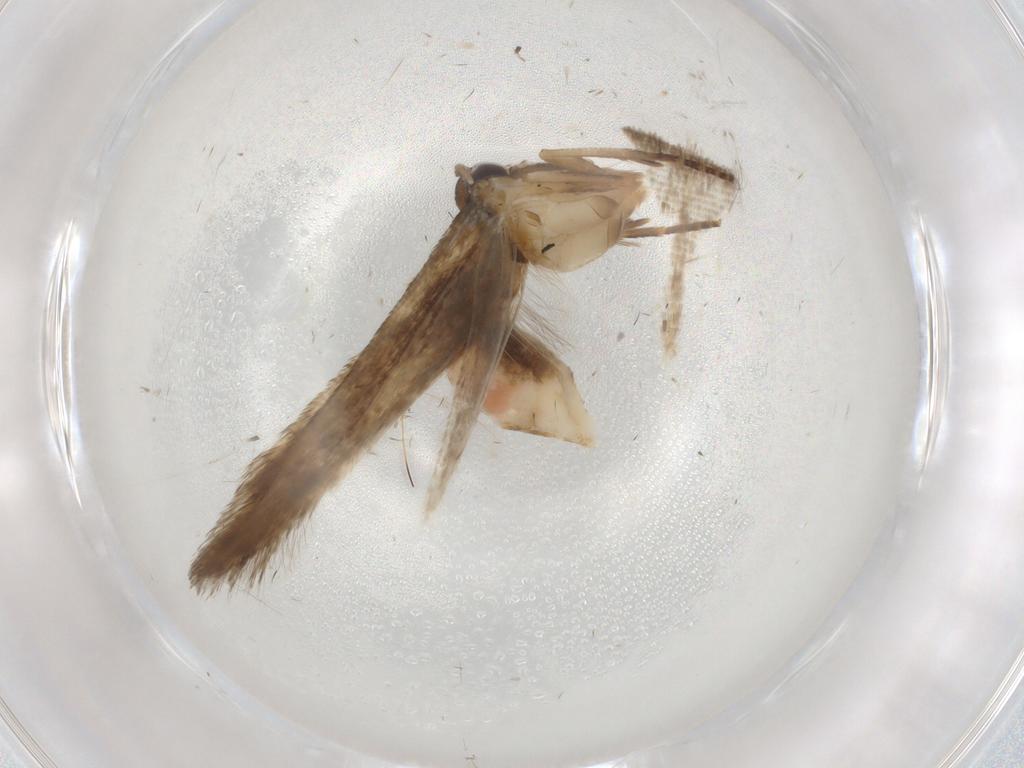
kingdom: Animalia
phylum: Arthropoda
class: Insecta
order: Lepidoptera
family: Cosmopterigidae
